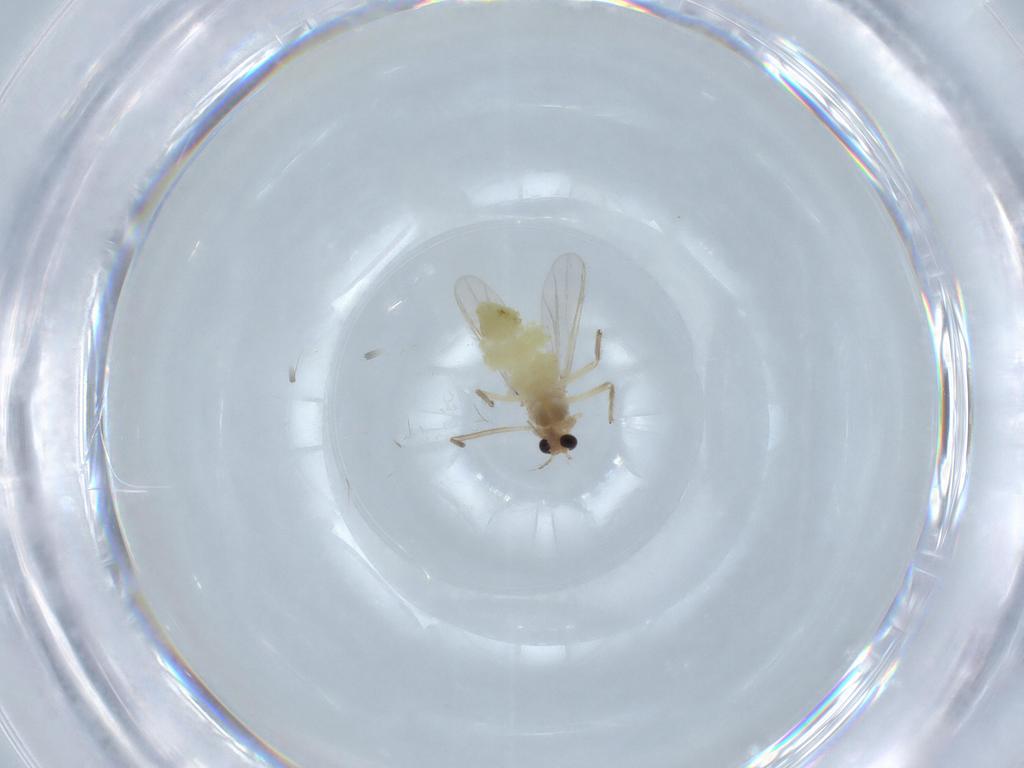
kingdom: Animalia
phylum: Arthropoda
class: Insecta
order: Diptera
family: Chironomidae
